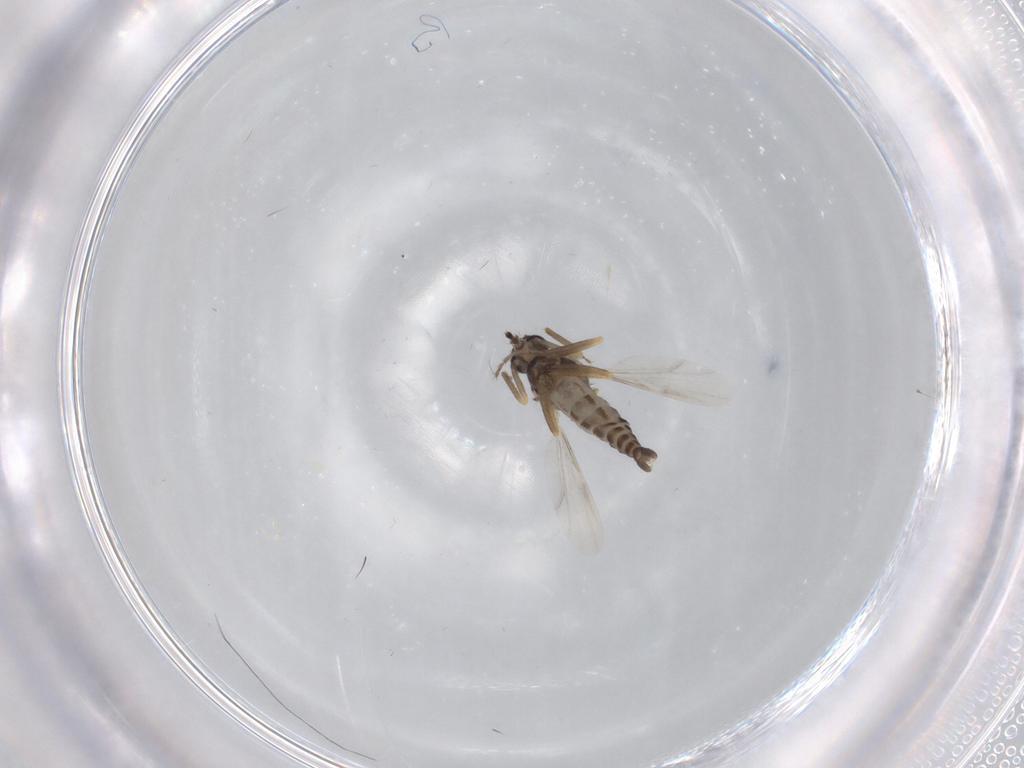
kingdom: Animalia
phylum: Arthropoda
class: Insecta
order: Diptera
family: Ceratopogonidae
